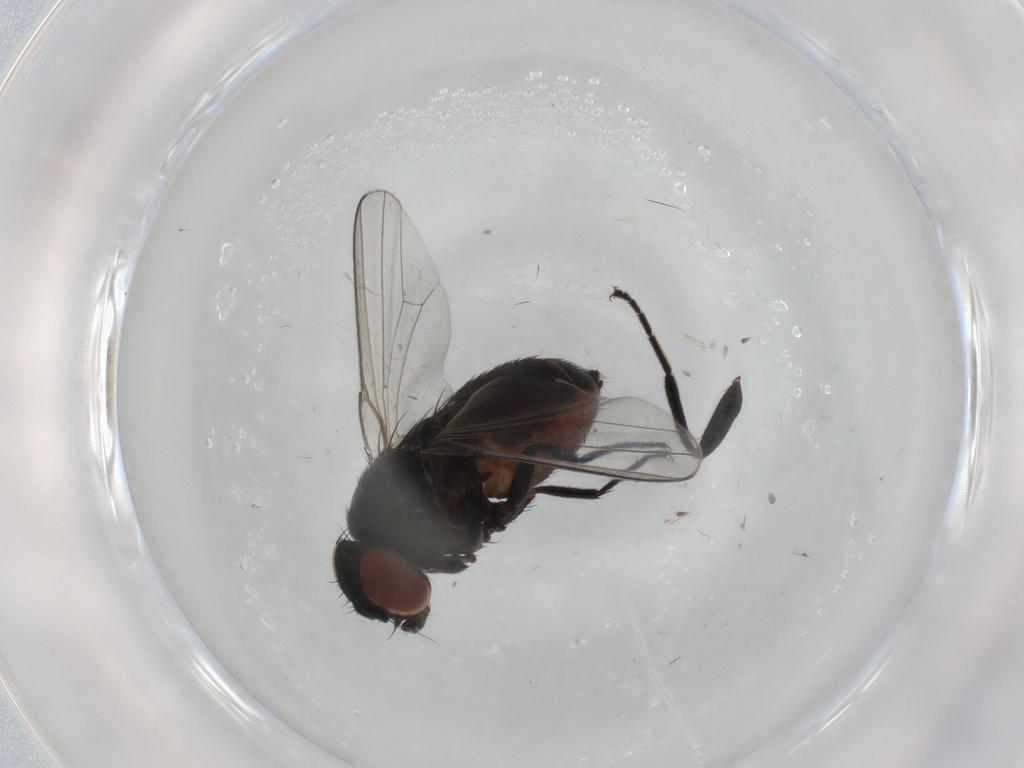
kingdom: Animalia
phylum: Arthropoda
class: Insecta
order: Diptera
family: Milichiidae
